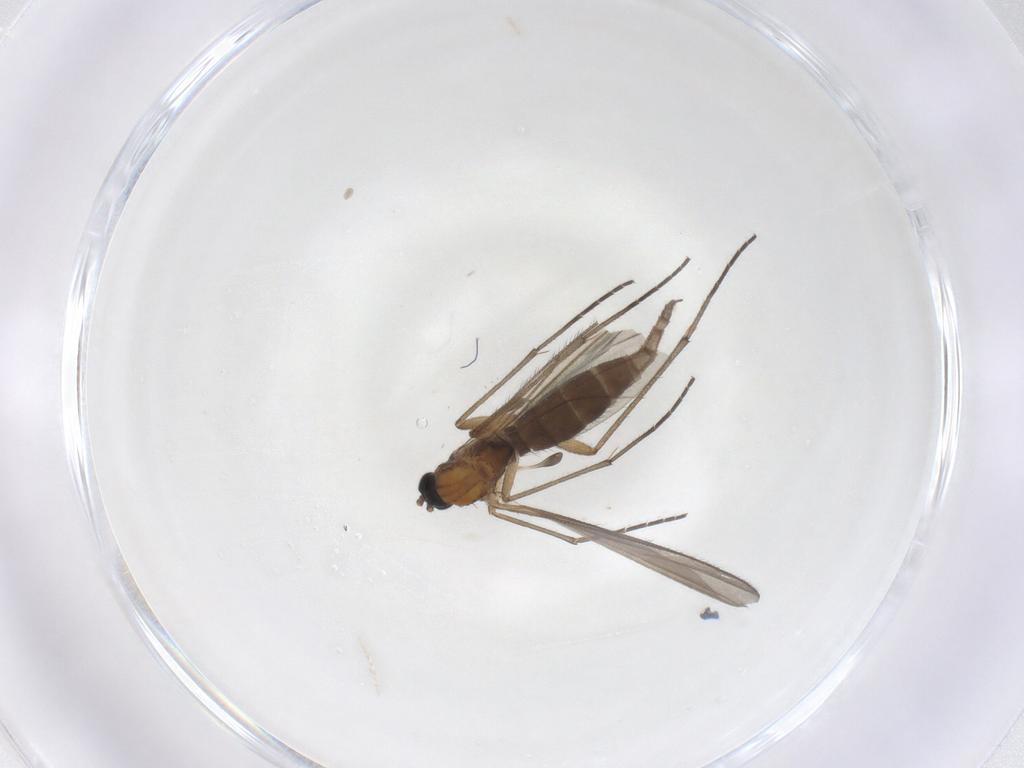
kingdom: Animalia
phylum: Arthropoda
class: Insecta
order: Diptera
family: Sciaridae
